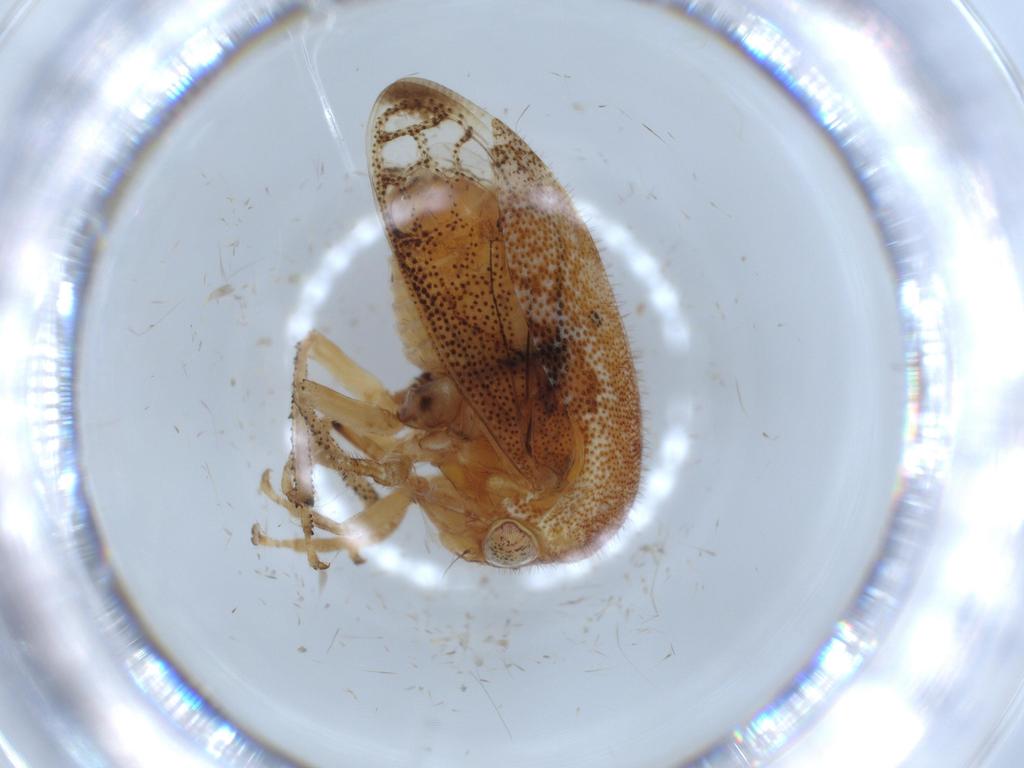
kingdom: Animalia
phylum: Arthropoda
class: Insecta
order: Hemiptera
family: Membracidae
